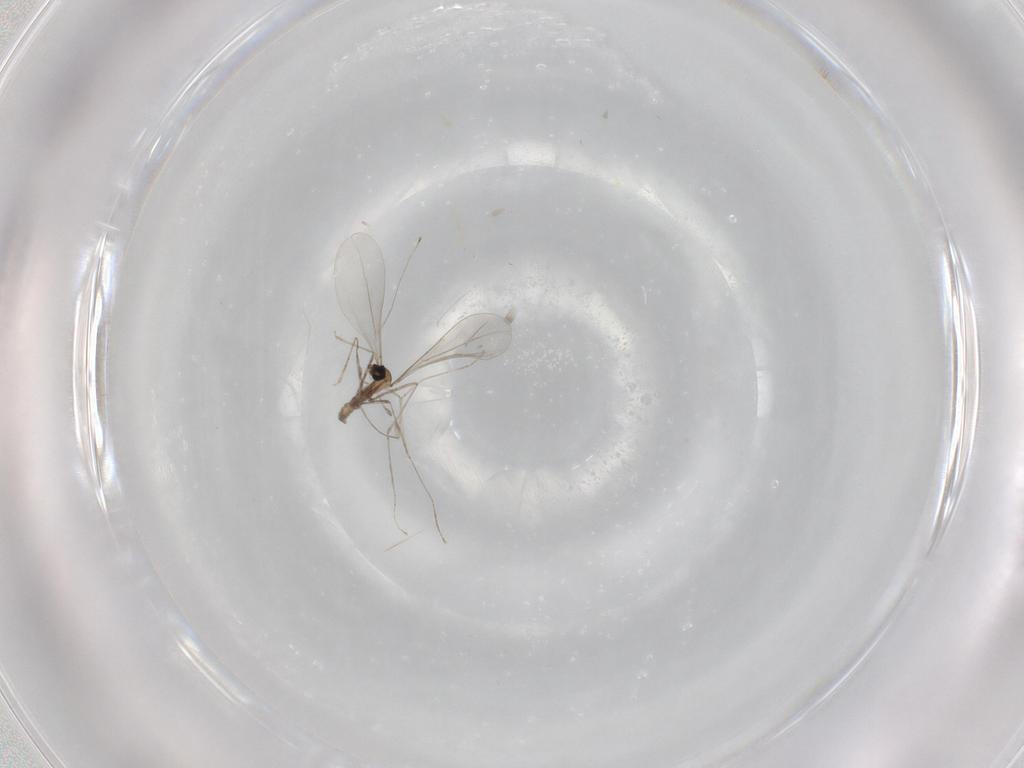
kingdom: Animalia
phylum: Arthropoda
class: Insecta
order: Diptera
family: Cecidomyiidae
